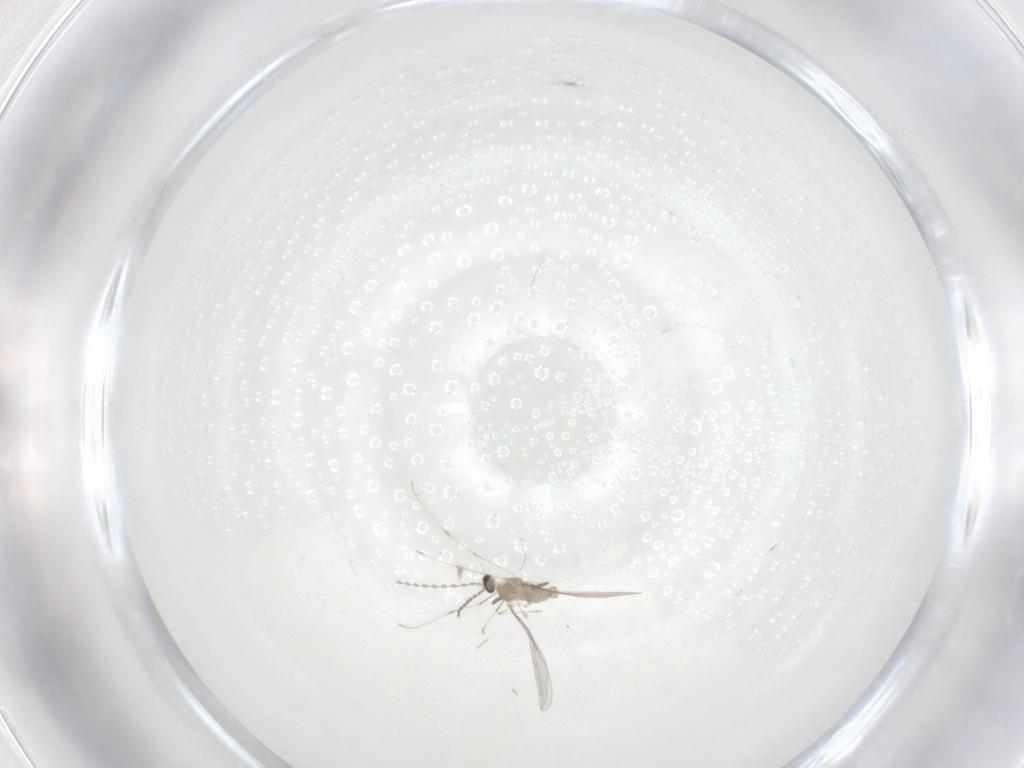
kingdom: Animalia
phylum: Arthropoda
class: Insecta
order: Diptera
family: Cecidomyiidae
